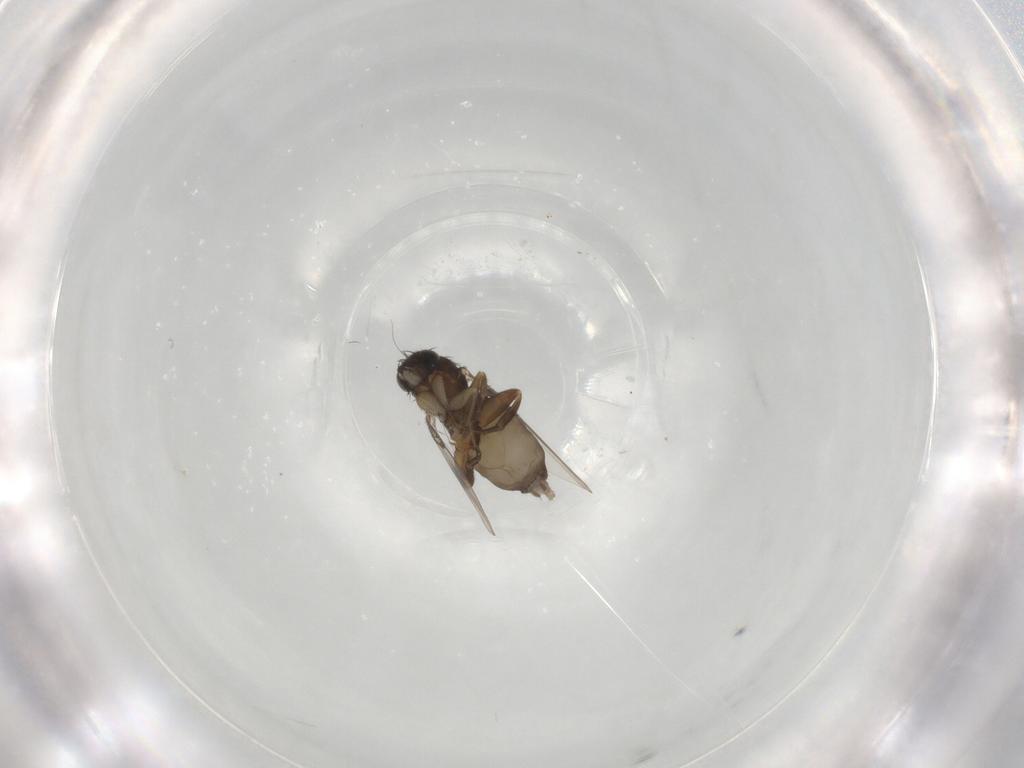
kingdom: Animalia
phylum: Arthropoda
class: Insecta
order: Diptera
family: Phoridae
